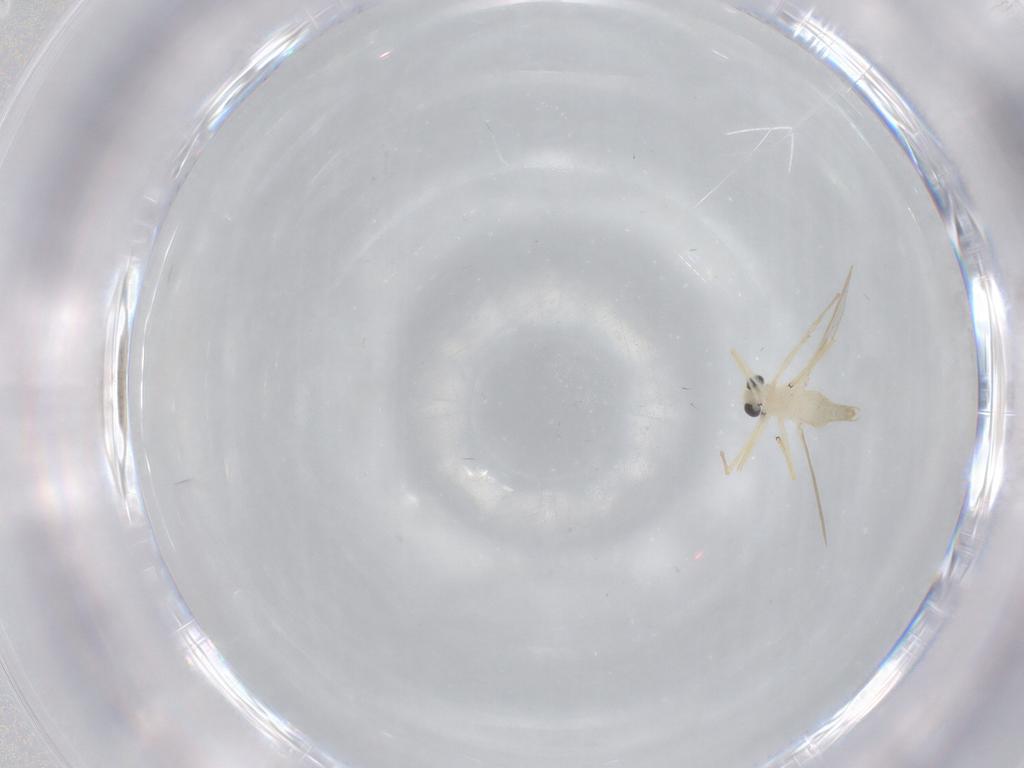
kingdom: Animalia
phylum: Arthropoda
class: Insecta
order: Diptera
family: Chironomidae
